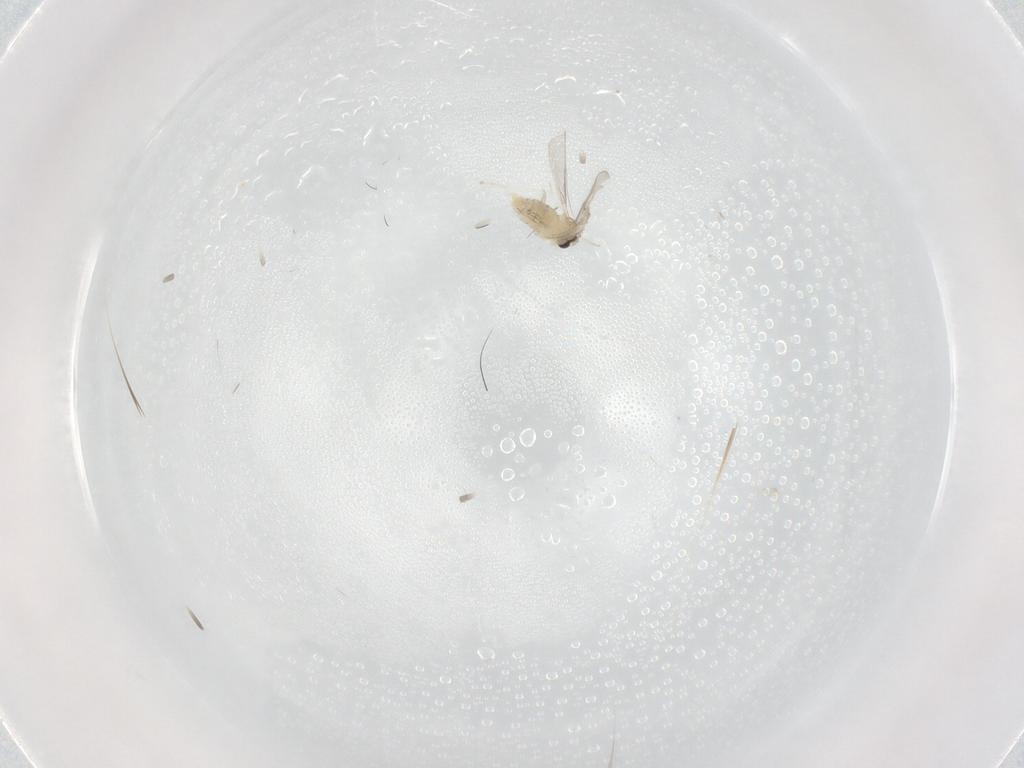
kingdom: Animalia
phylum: Arthropoda
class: Insecta
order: Diptera
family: Cecidomyiidae
